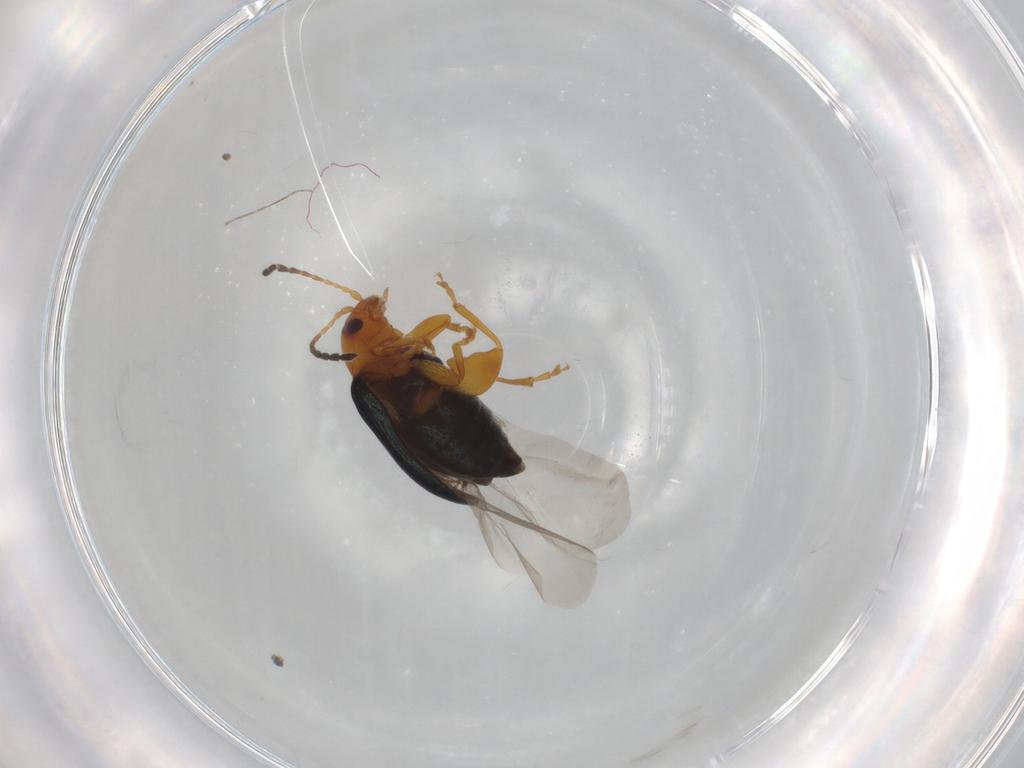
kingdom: Animalia
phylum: Arthropoda
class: Insecta
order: Coleoptera
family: Chrysomelidae
